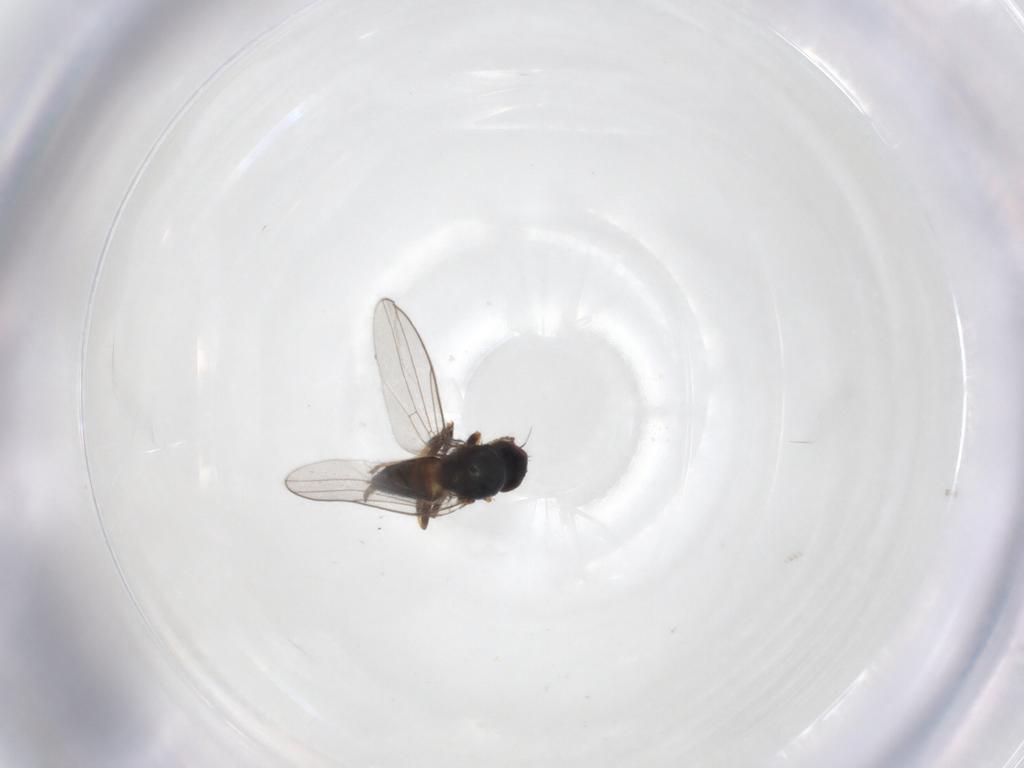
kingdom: Animalia
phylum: Arthropoda
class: Insecta
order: Diptera
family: Chloropidae
